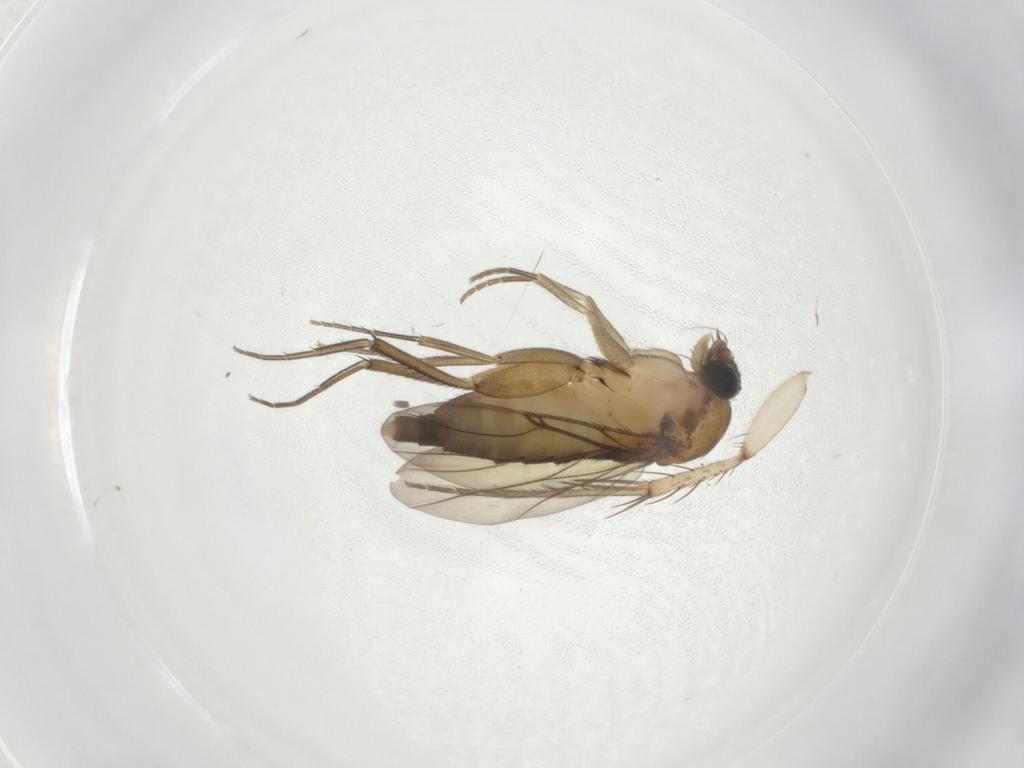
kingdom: Animalia
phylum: Arthropoda
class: Insecta
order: Diptera
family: Phoridae
